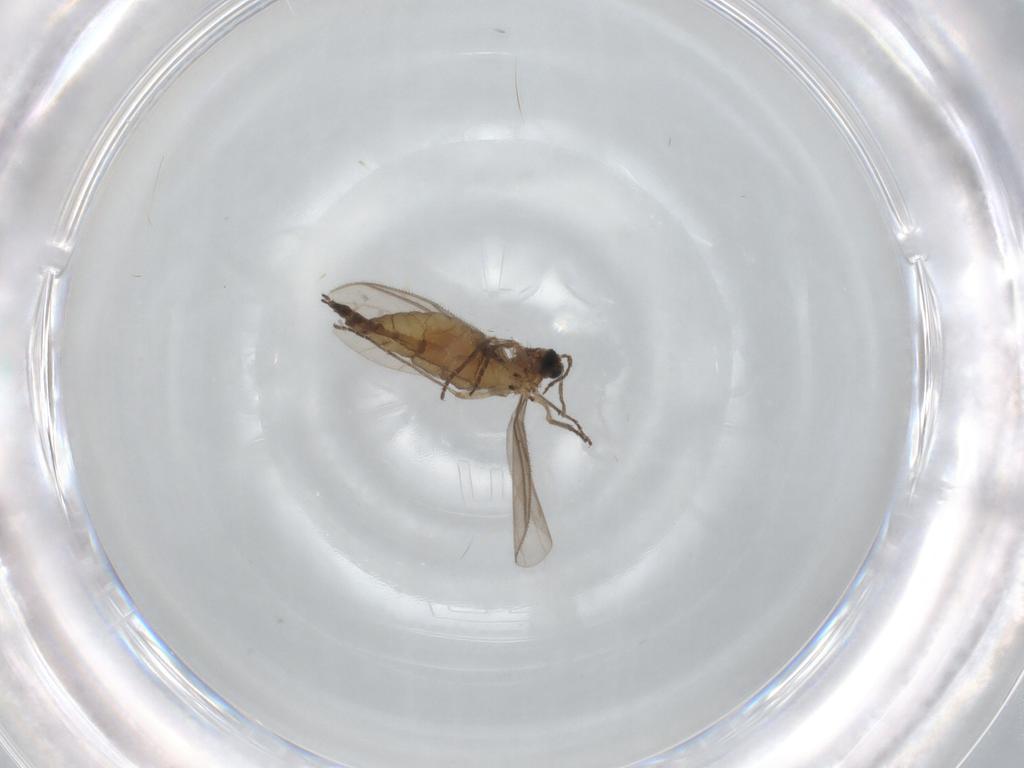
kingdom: Animalia
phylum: Arthropoda
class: Insecta
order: Diptera
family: Sciaridae
